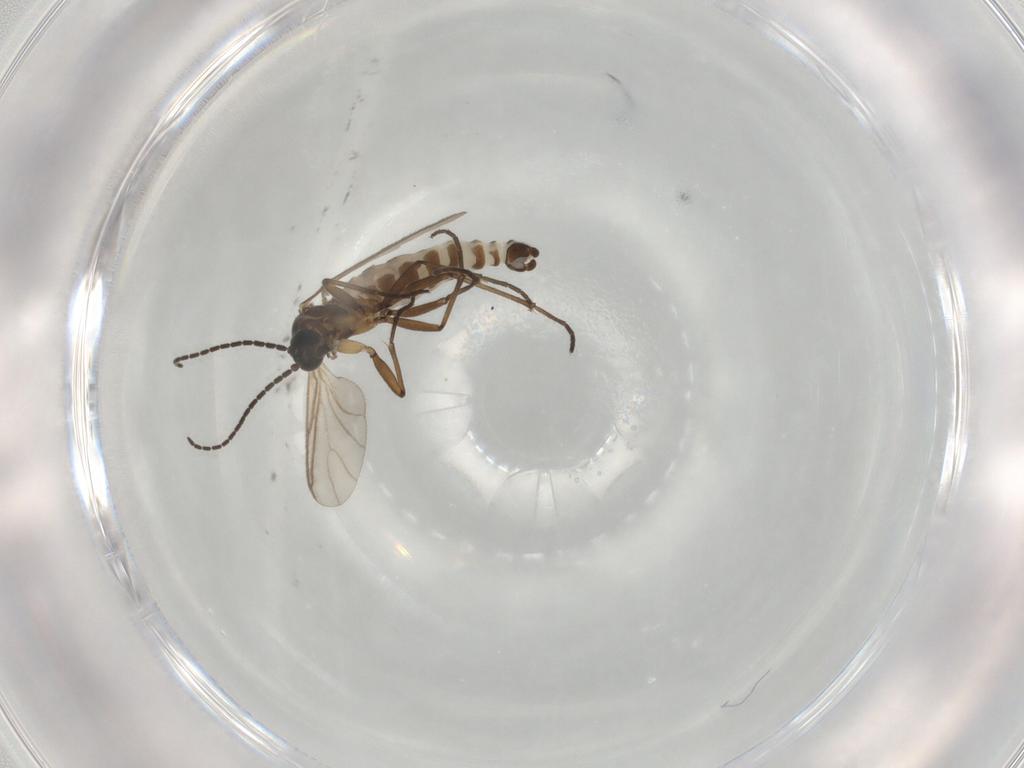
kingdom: Animalia
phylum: Arthropoda
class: Insecta
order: Diptera
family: Sciaridae
